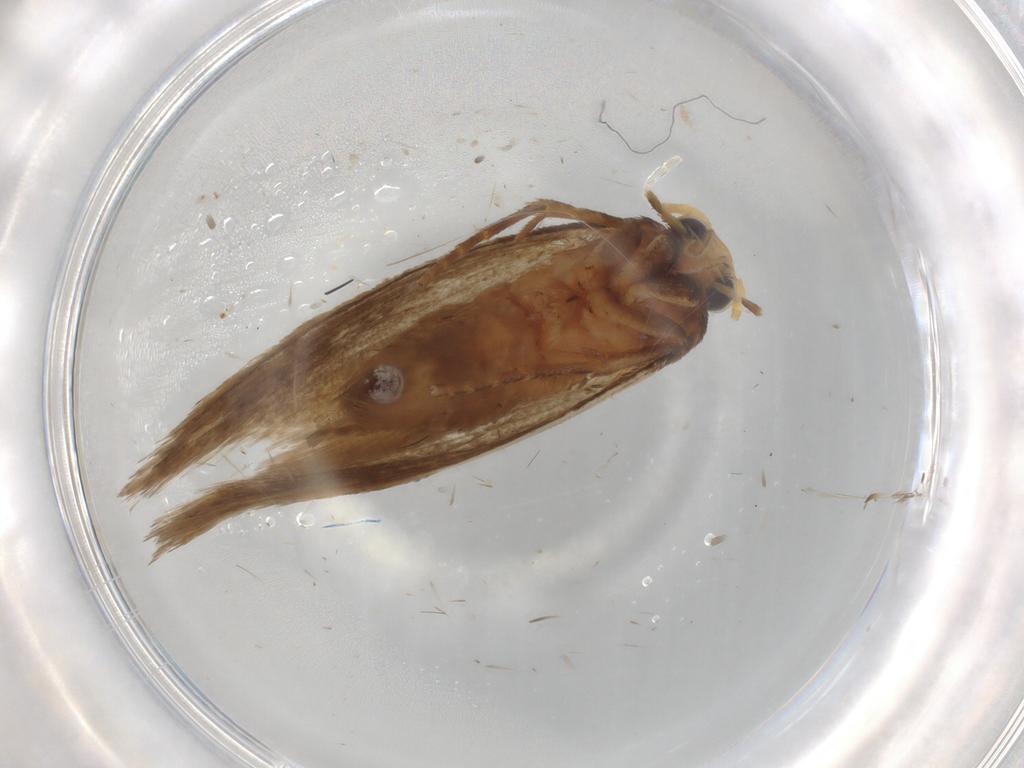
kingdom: Animalia
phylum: Arthropoda
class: Insecta
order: Lepidoptera
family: Tineidae
